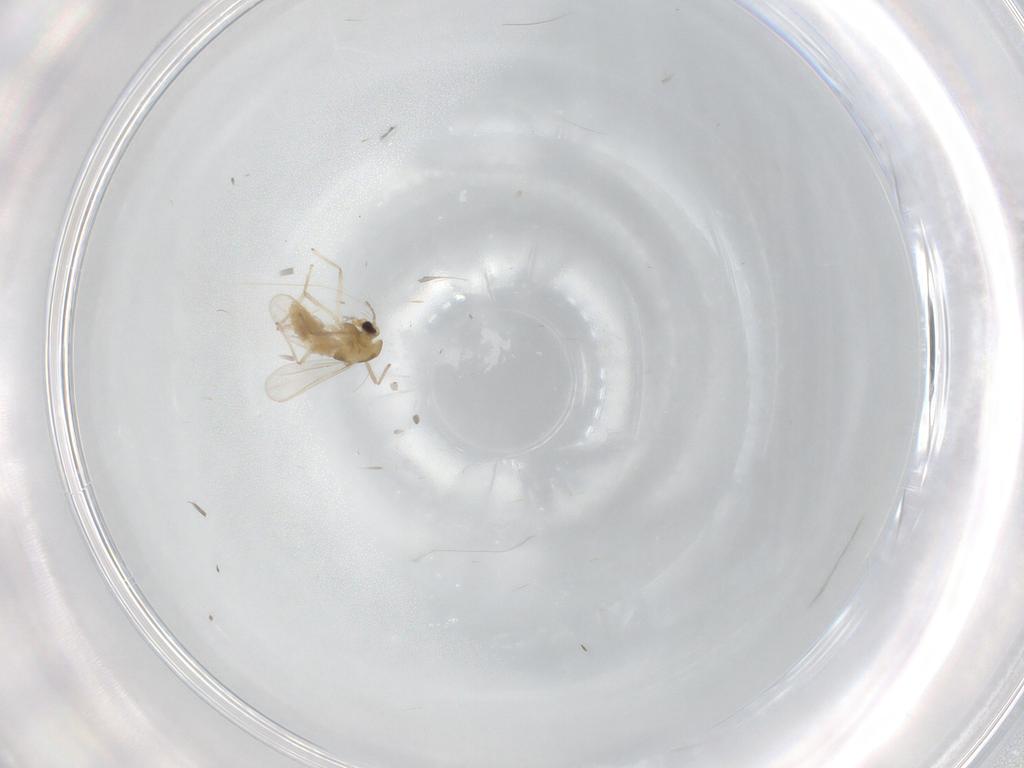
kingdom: Animalia
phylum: Arthropoda
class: Insecta
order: Diptera
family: Chironomidae
